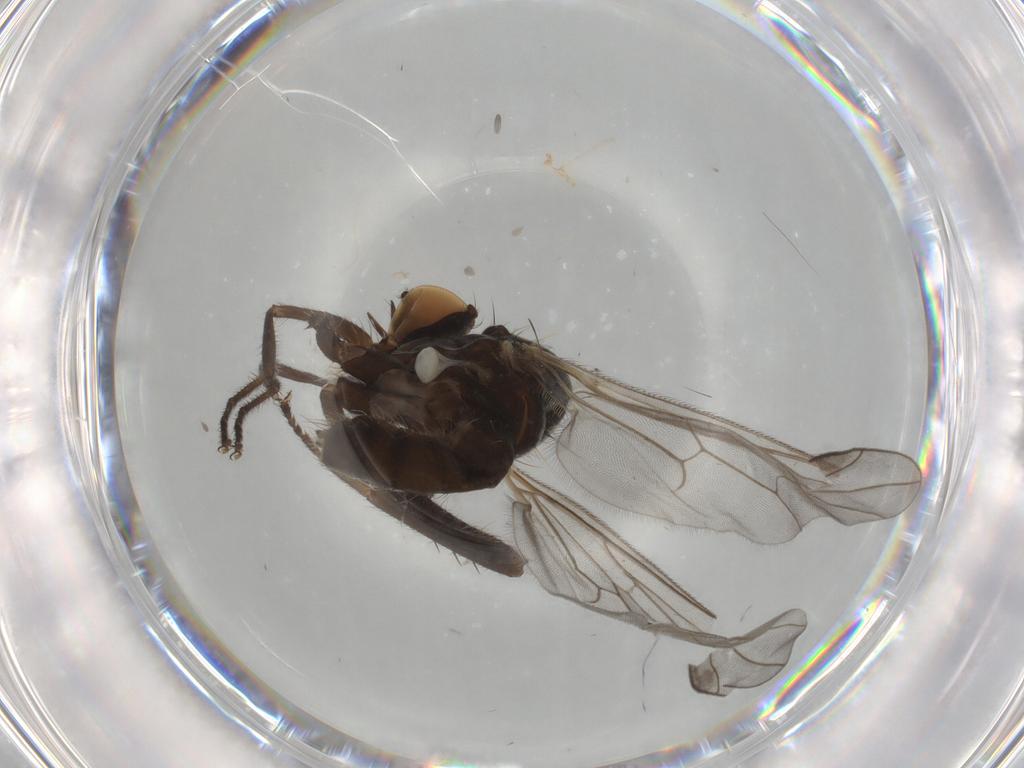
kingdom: Animalia
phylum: Arthropoda
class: Insecta
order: Diptera
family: Hybotidae
